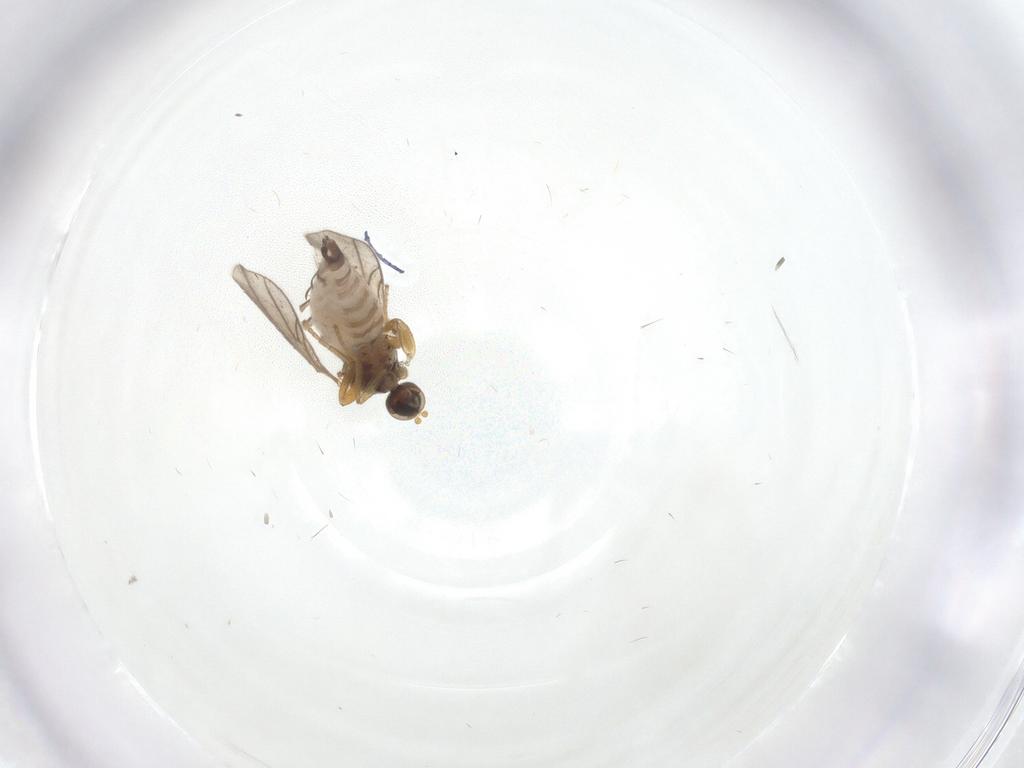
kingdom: Animalia
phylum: Arthropoda
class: Insecta
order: Diptera
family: Hybotidae
